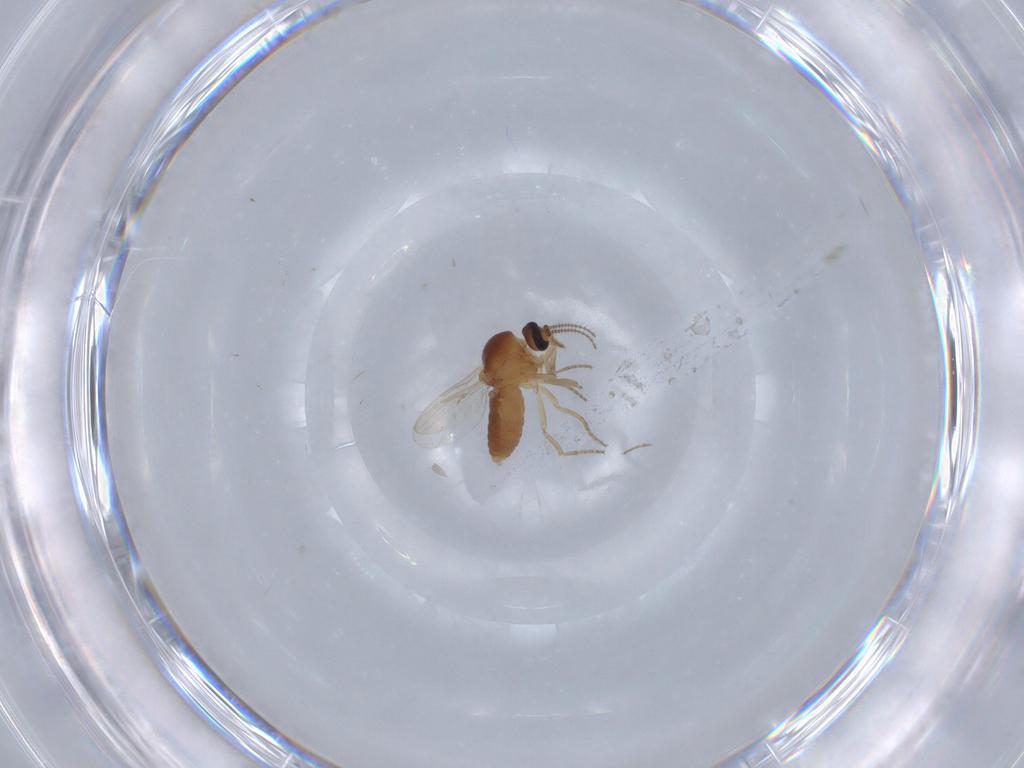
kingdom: Animalia
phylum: Arthropoda
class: Insecta
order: Diptera
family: Ceratopogonidae
